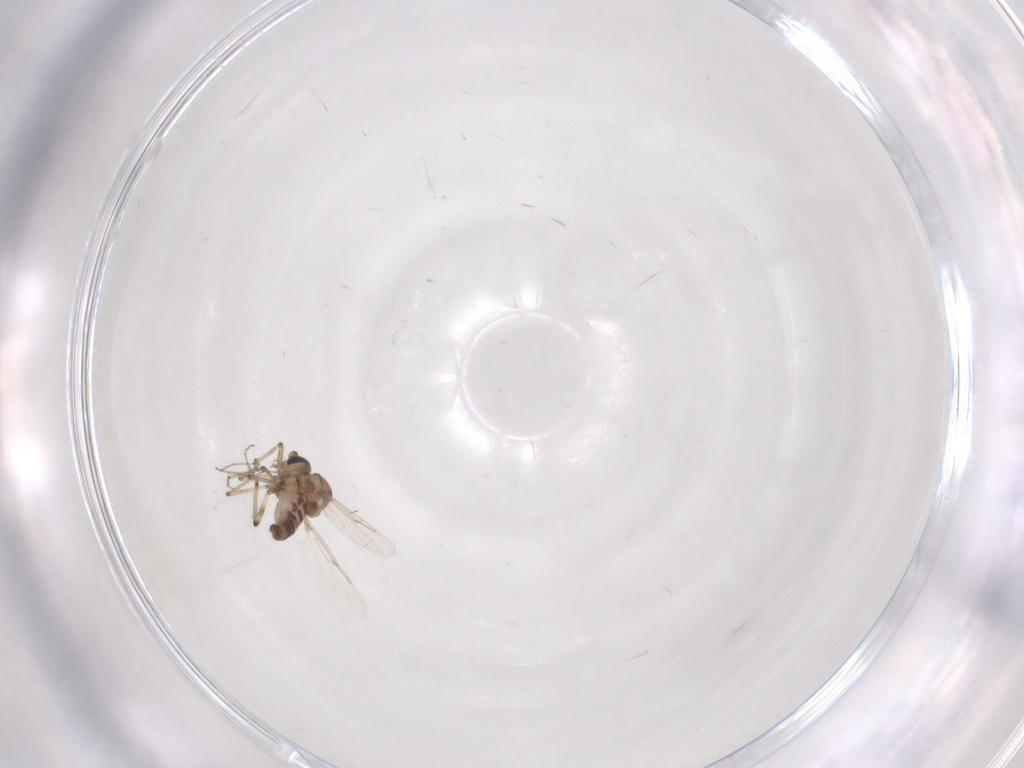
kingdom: Animalia
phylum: Arthropoda
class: Insecta
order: Diptera
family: Ceratopogonidae
